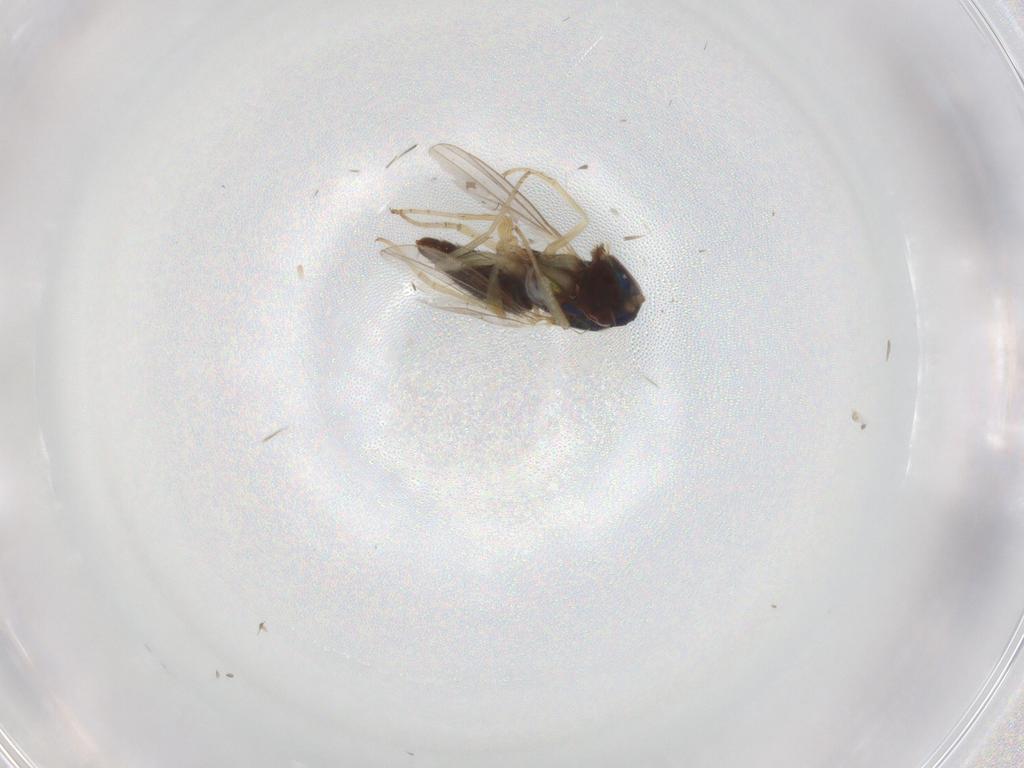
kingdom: Animalia
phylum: Arthropoda
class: Insecta
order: Diptera
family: Dolichopodidae
